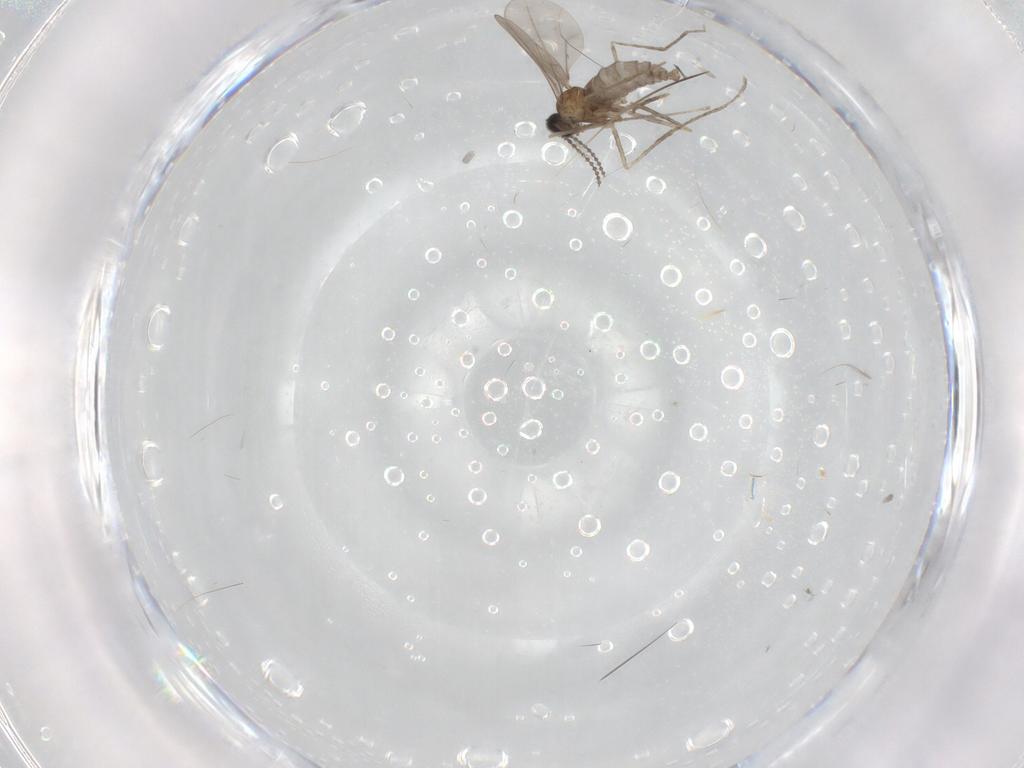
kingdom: Animalia
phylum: Arthropoda
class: Insecta
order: Diptera
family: Cecidomyiidae
